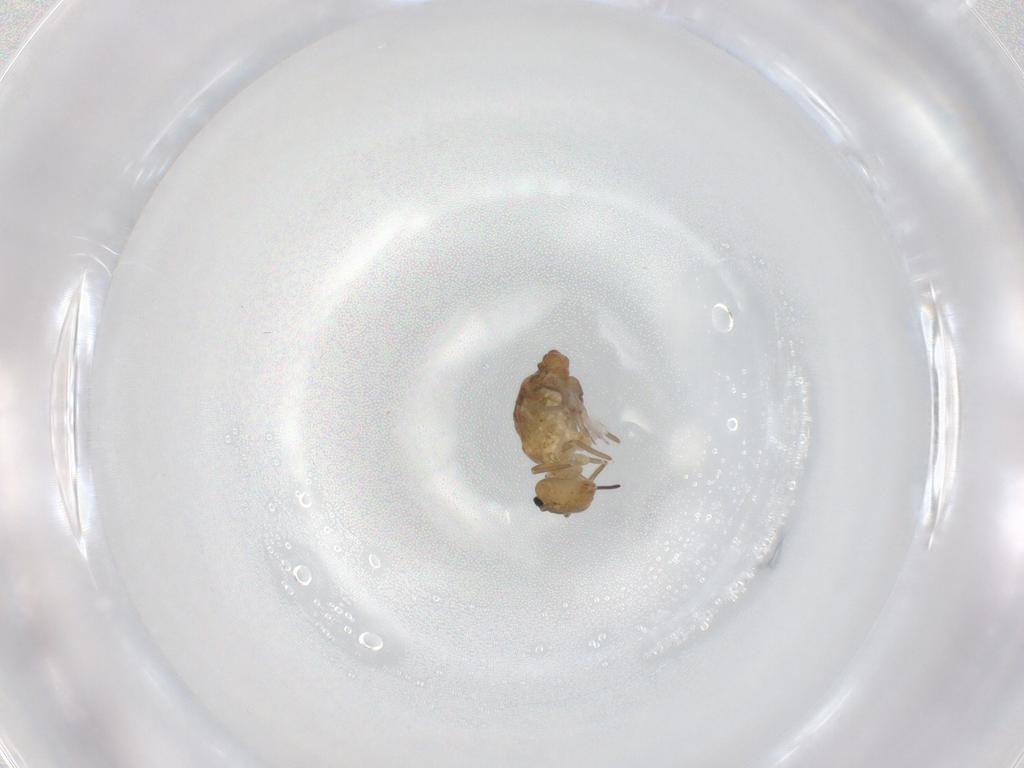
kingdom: Animalia
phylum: Arthropoda
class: Collembola
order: Symphypleona
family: Sminthuridae
